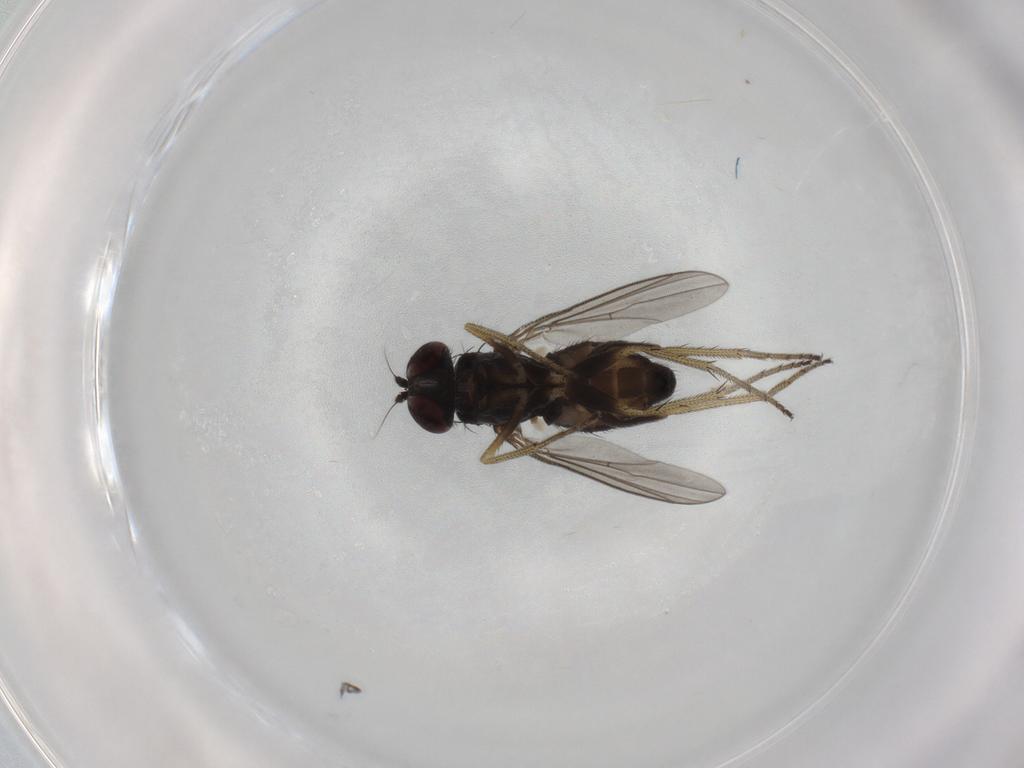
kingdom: Animalia
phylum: Arthropoda
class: Insecta
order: Diptera
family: Chironomidae
